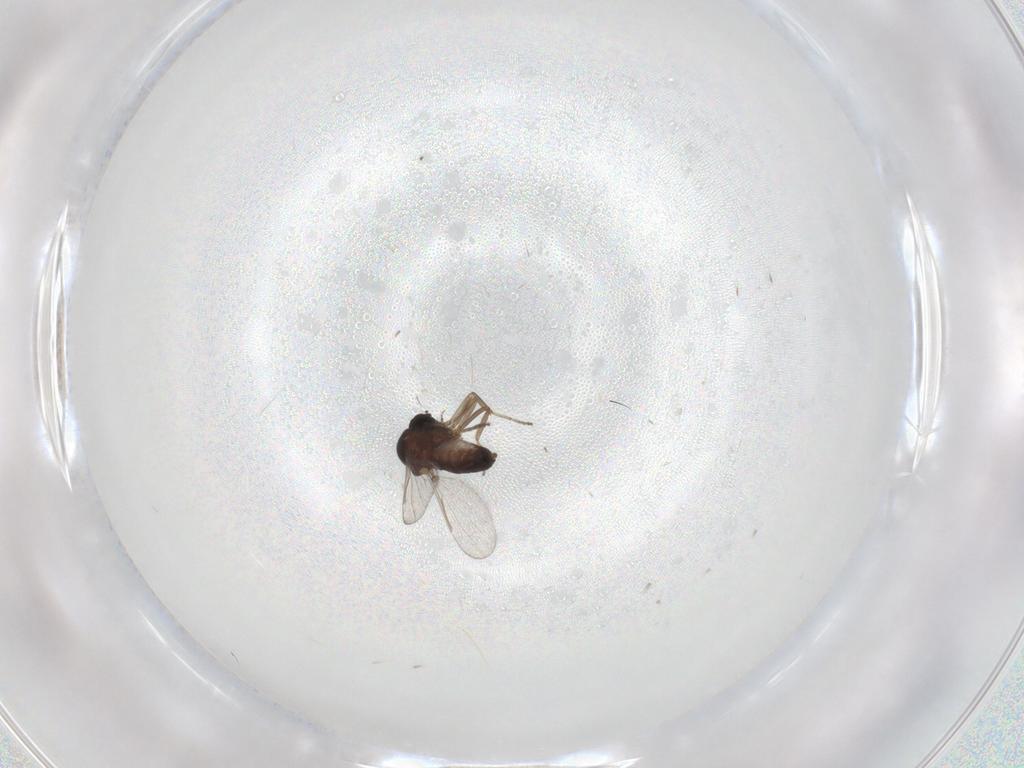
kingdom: Animalia
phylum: Arthropoda
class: Insecta
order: Diptera
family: Ceratopogonidae
